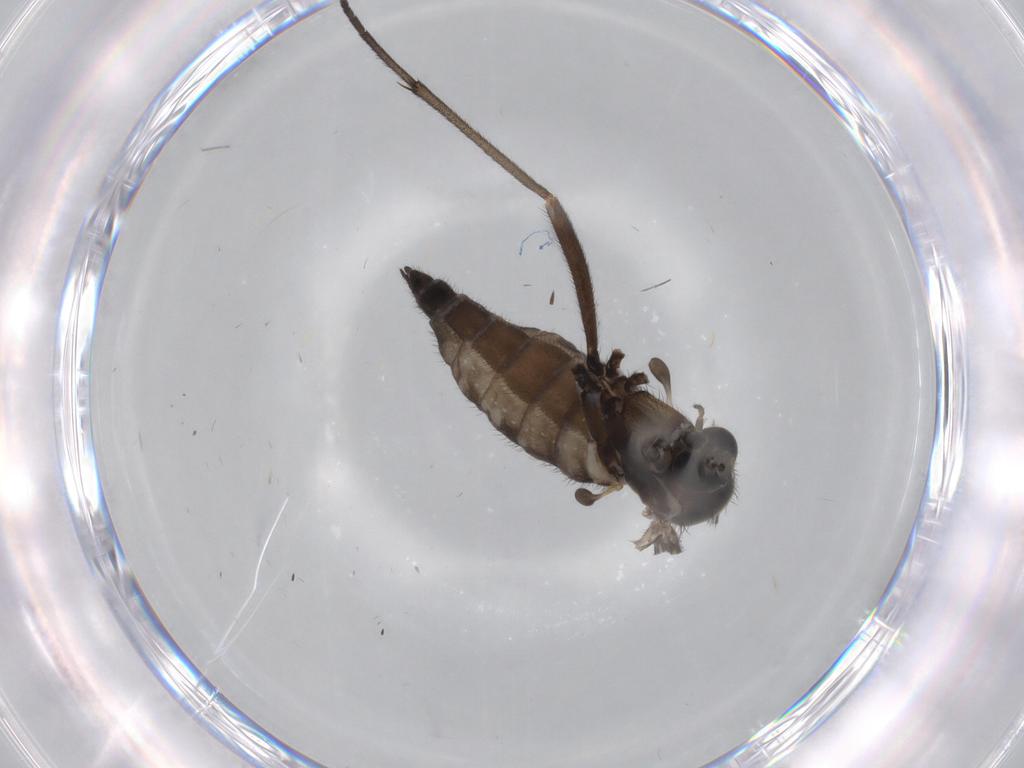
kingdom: Animalia
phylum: Arthropoda
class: Insecta
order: Diptera
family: Sciaridae
